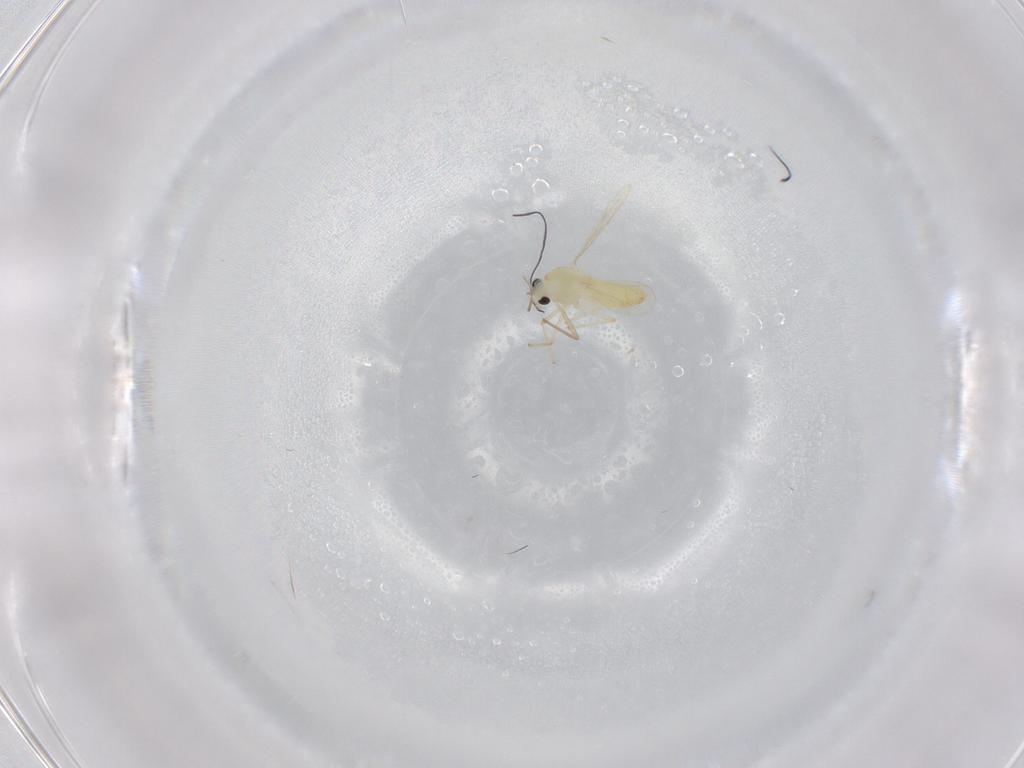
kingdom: Animalia
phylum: Arthropoda
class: Insecta
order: Diptera
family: Chironomidae
